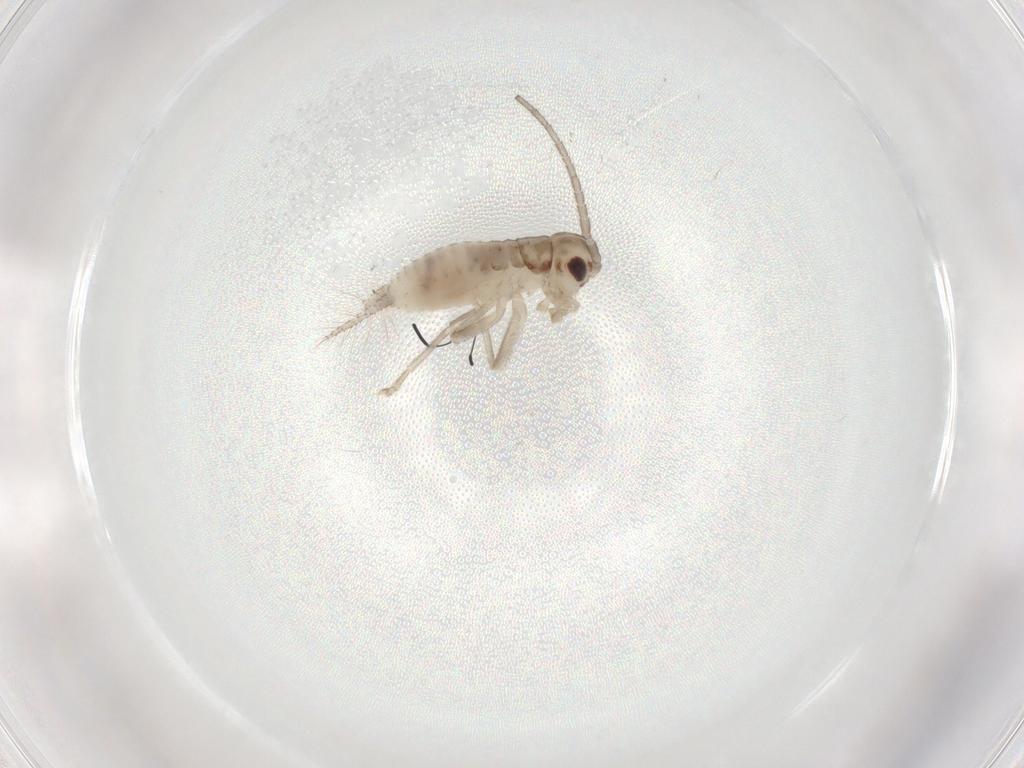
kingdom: Animalia
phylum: Arthropoda
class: Insecta
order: Orthoptera
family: Trigonidiidae
